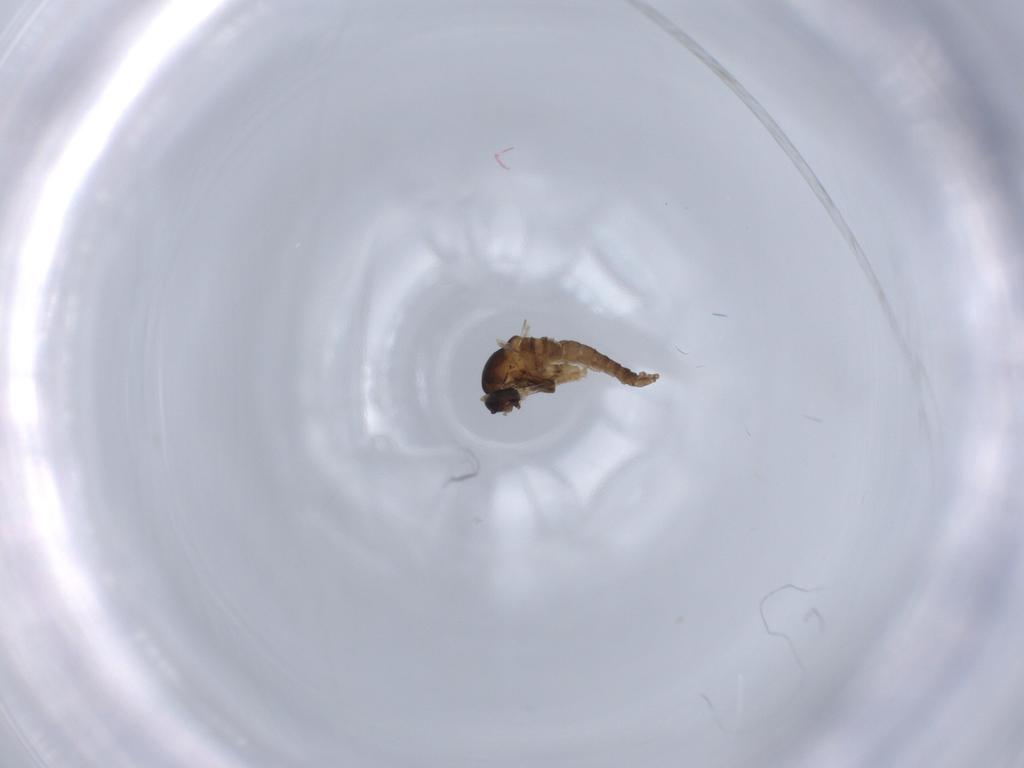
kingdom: Animalia
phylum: Arthropoda
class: Insecta
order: Diptera
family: Cecidomyiidae
